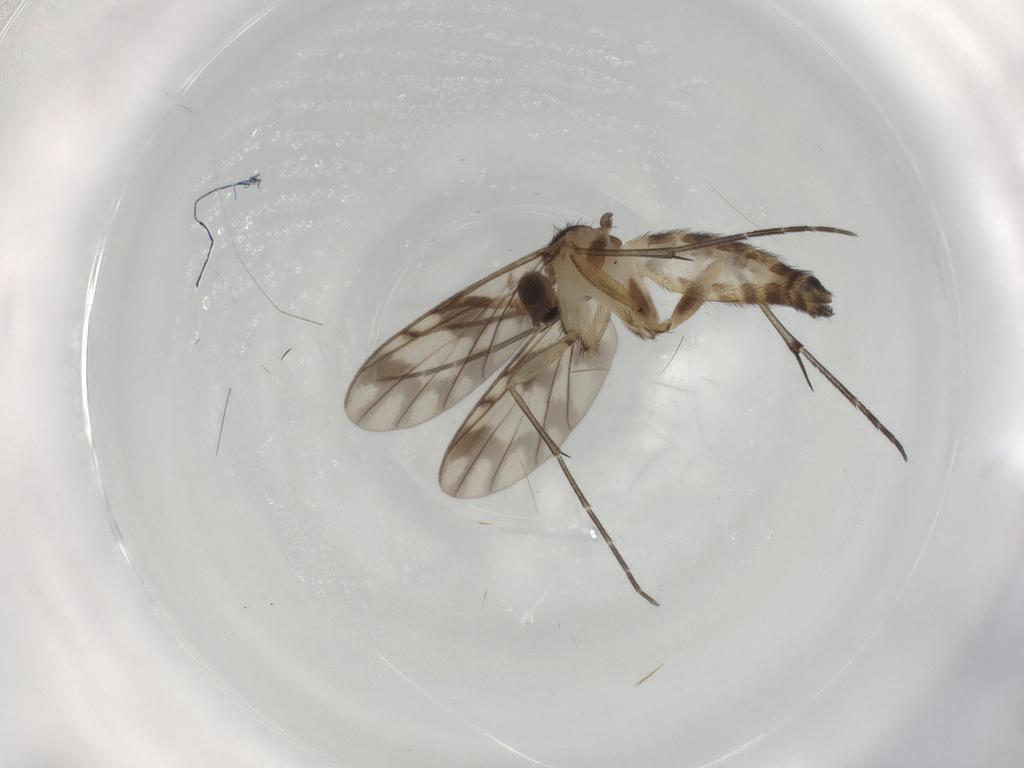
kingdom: Animalia
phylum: Arthropoda
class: Insecta
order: Diptera
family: Keroplatidae
